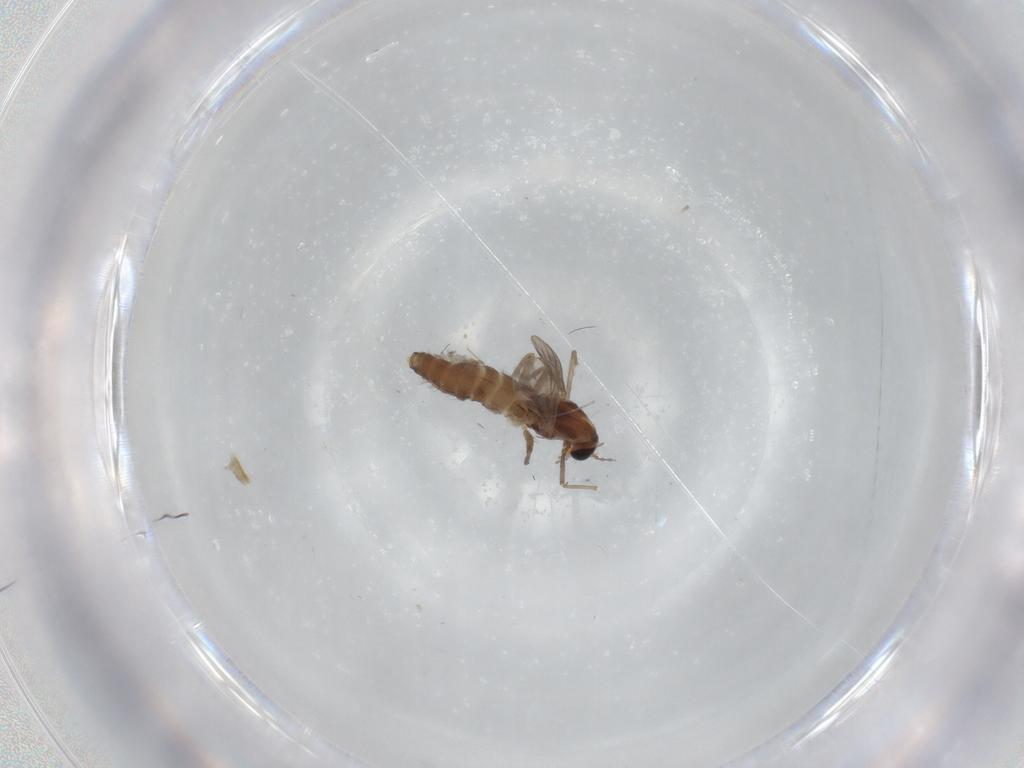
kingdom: Animalia
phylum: Arthropoda
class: Insecta
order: Diptera
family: Chironomidae
